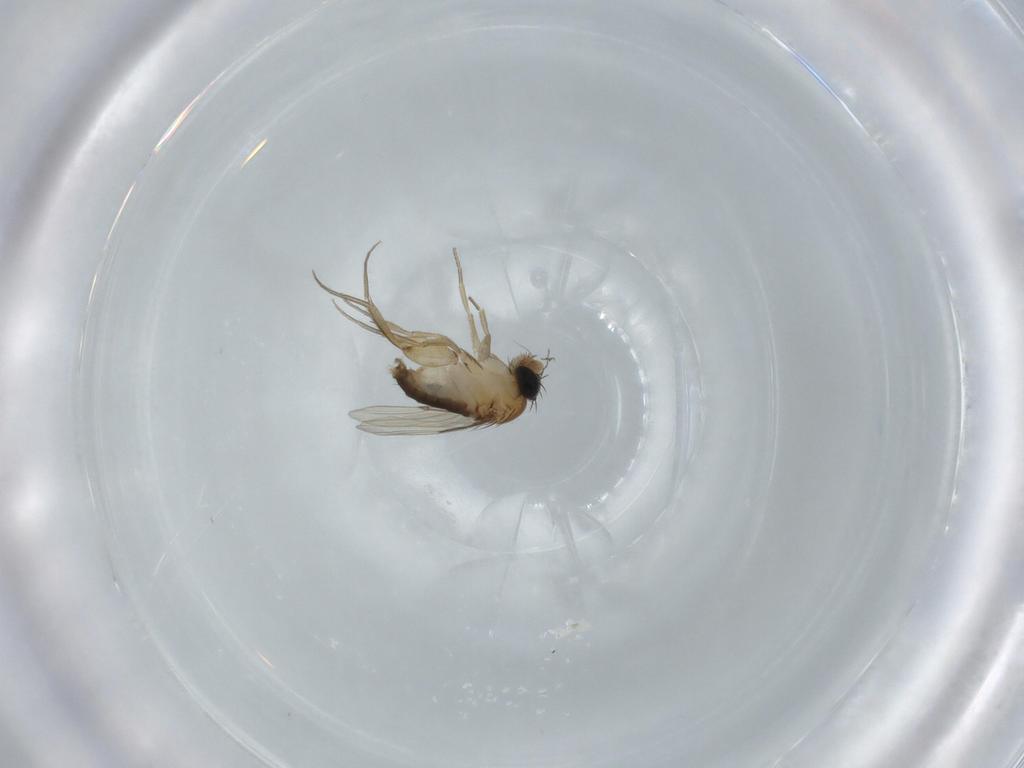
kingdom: Animalia
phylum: Arthropoda
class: Insecta
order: Diptera
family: Phoridae
